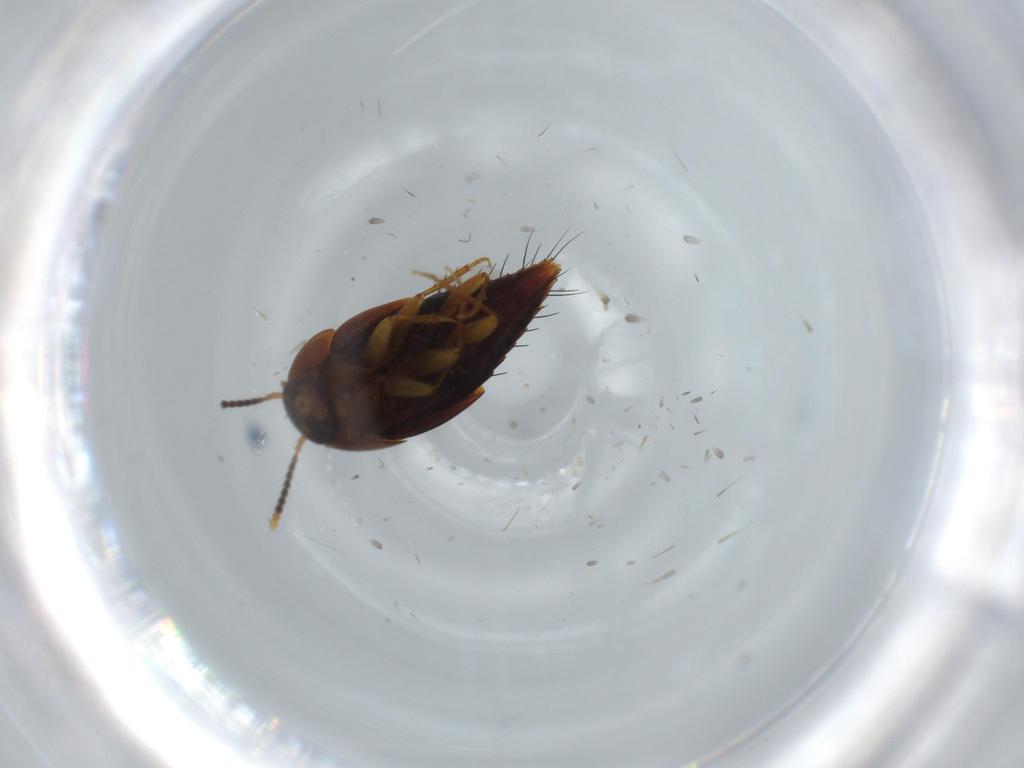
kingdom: Animalia
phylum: Arthropoda
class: Insecta
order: Coleoptera
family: Staphylinidae
